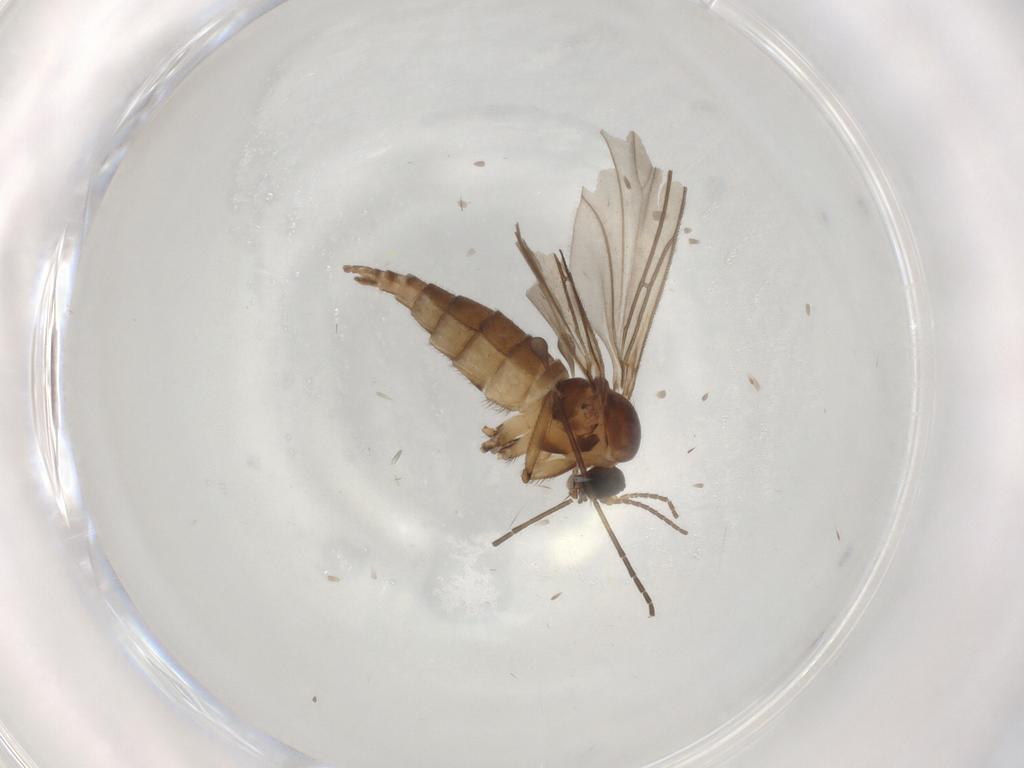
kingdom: Animalia
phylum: Arthropoda
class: Insecta
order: Diptera
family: Sciaridae
